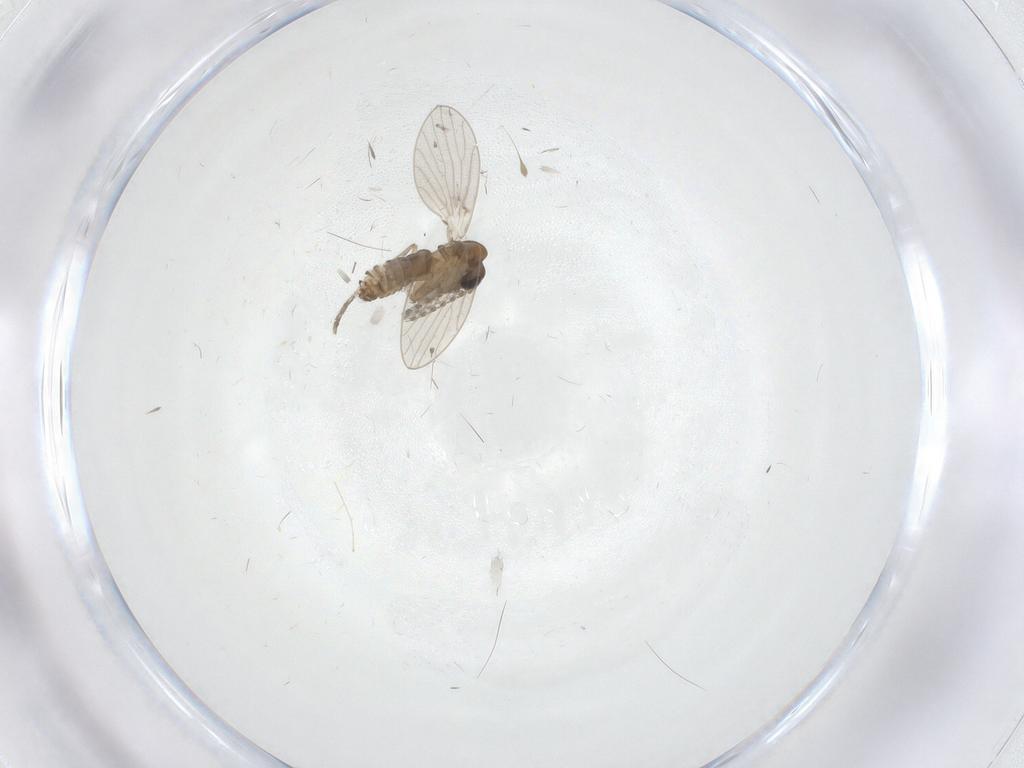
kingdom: Animalia
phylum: Arthropoda
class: Insecta
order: Diptera
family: Psychodidae
